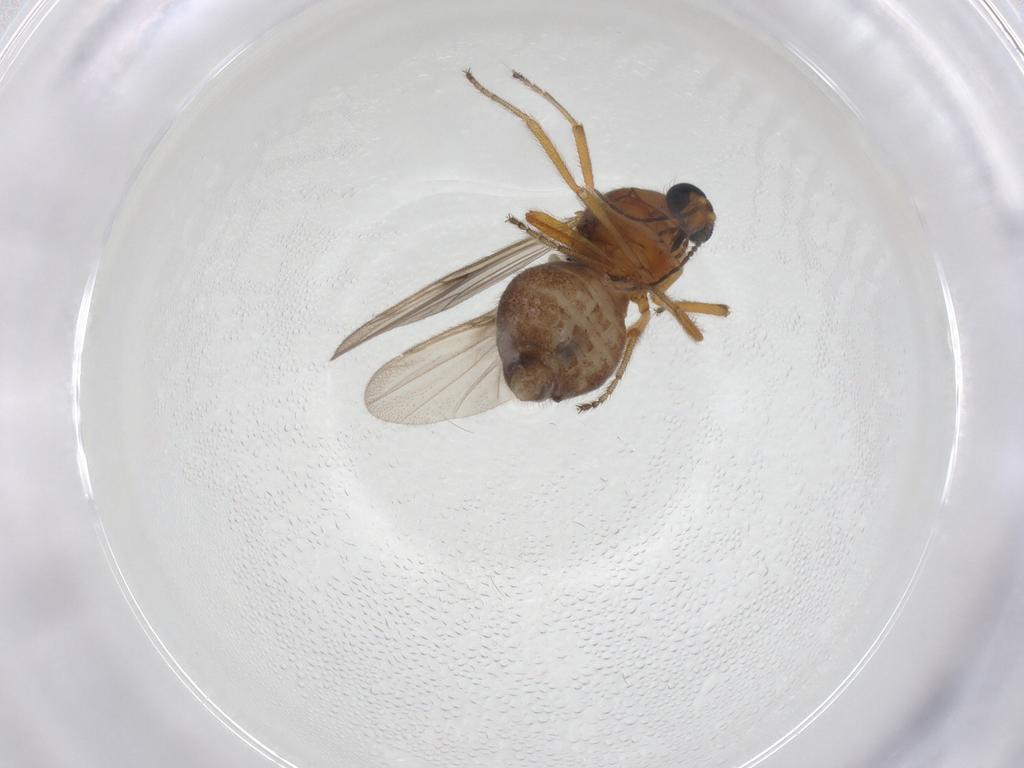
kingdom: Animalia
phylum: Arthropoda
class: Insecta
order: Diptera
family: Ceratopogonidae
